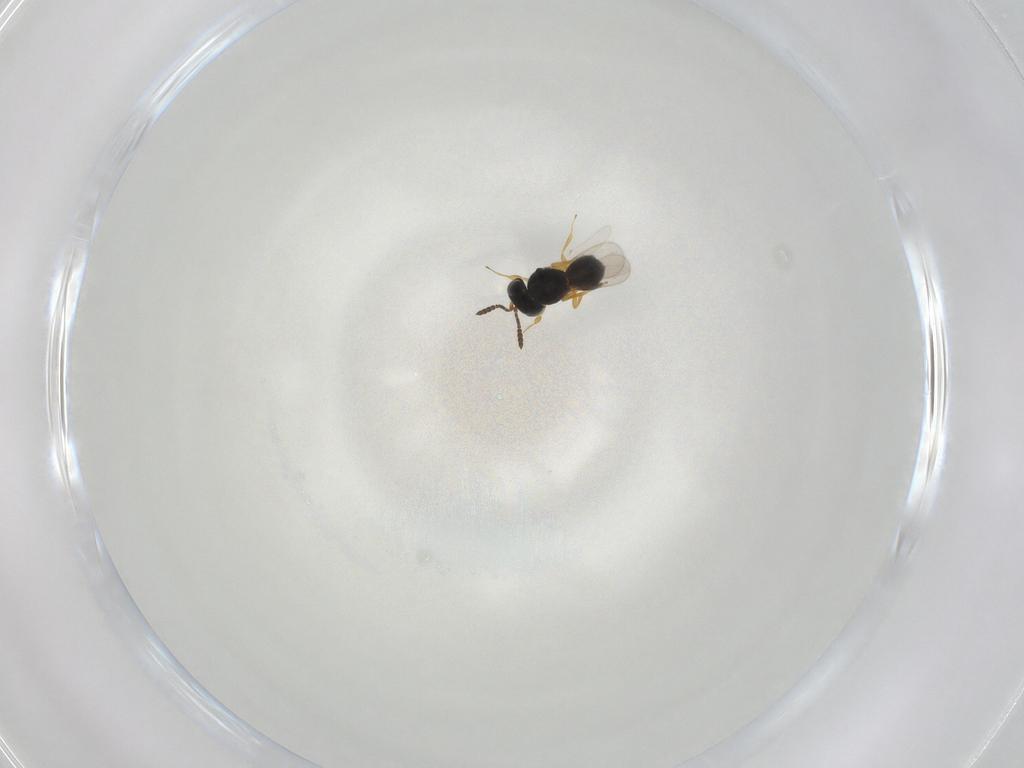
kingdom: Animalia
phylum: Arthropoda
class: Insecta
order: Hymenoptera
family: Scelionidae
